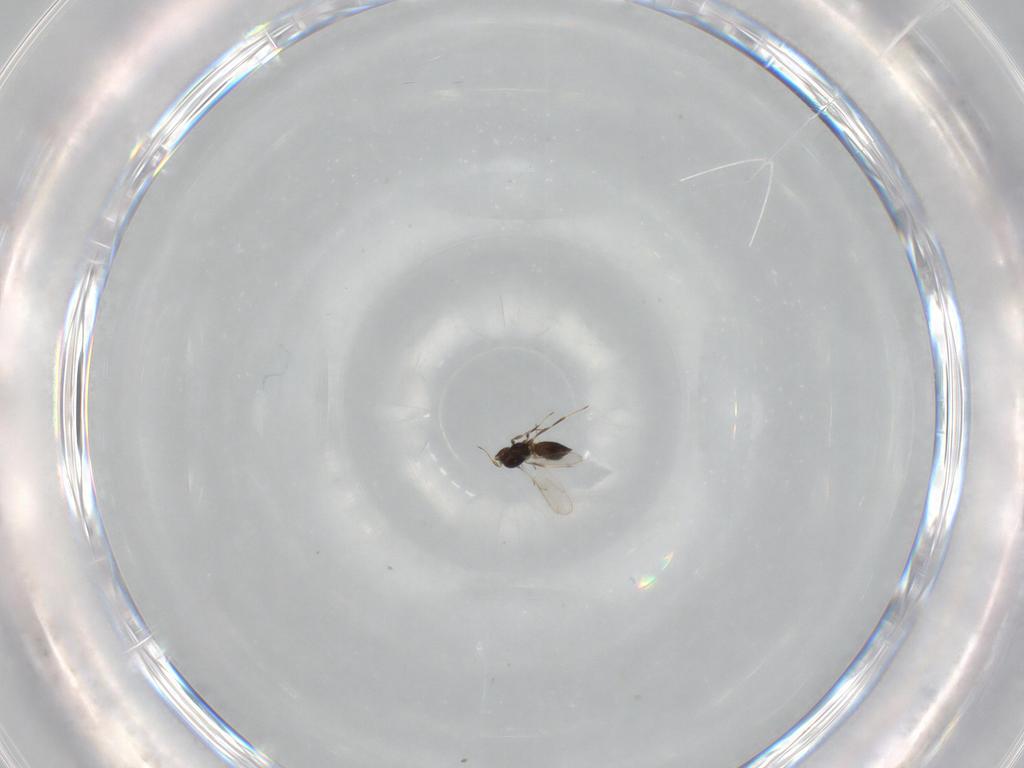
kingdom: Animalia
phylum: Arthropoda
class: Insecta
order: Hymenoptera
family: Scelionidae
